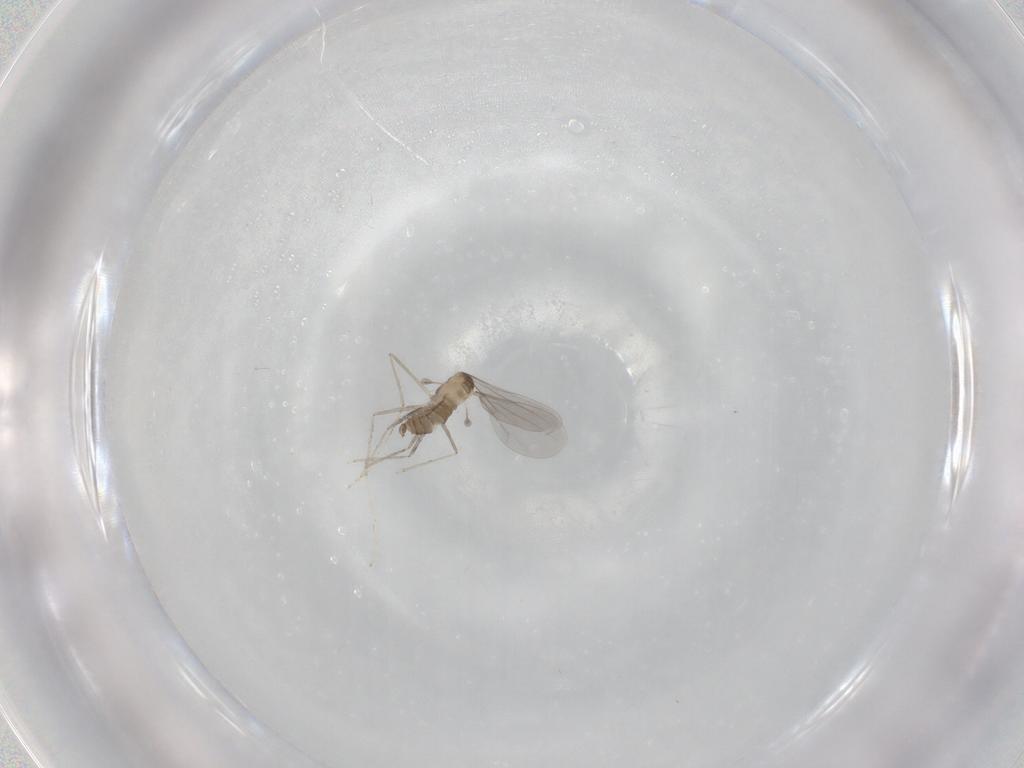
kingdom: Animalia
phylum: Arthropoda
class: Insecta
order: Diptera
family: Cecidomyiidae
